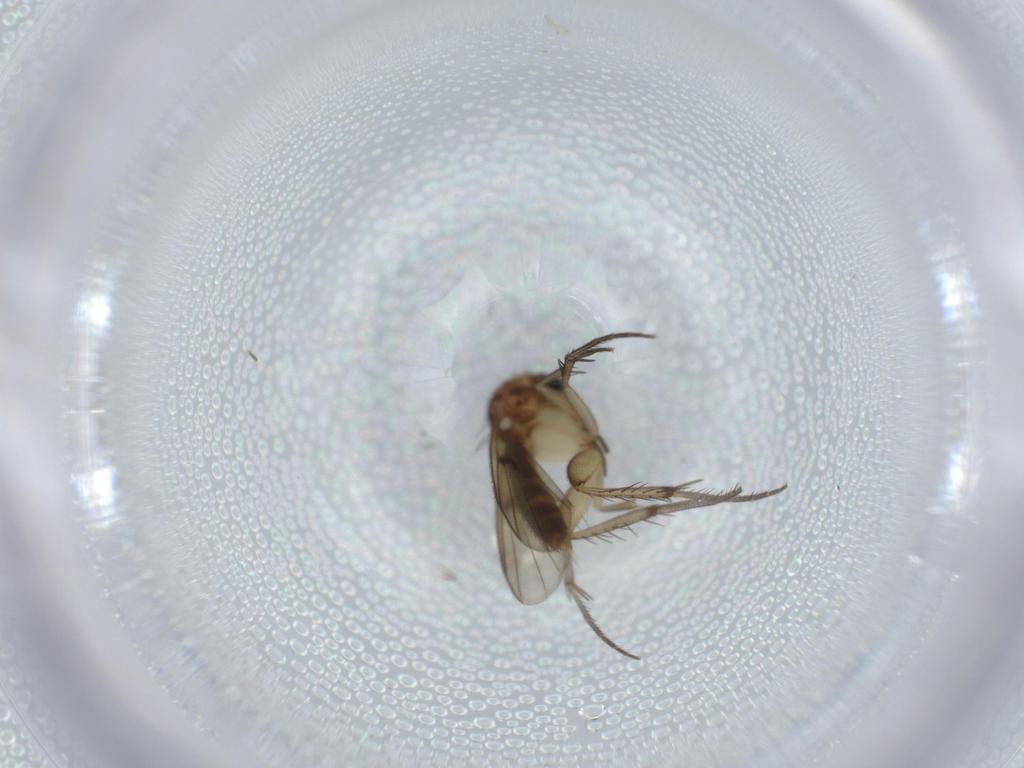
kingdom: Animalia
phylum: Arthropoda
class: Insecta
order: Diptera
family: Mycetophilidae
